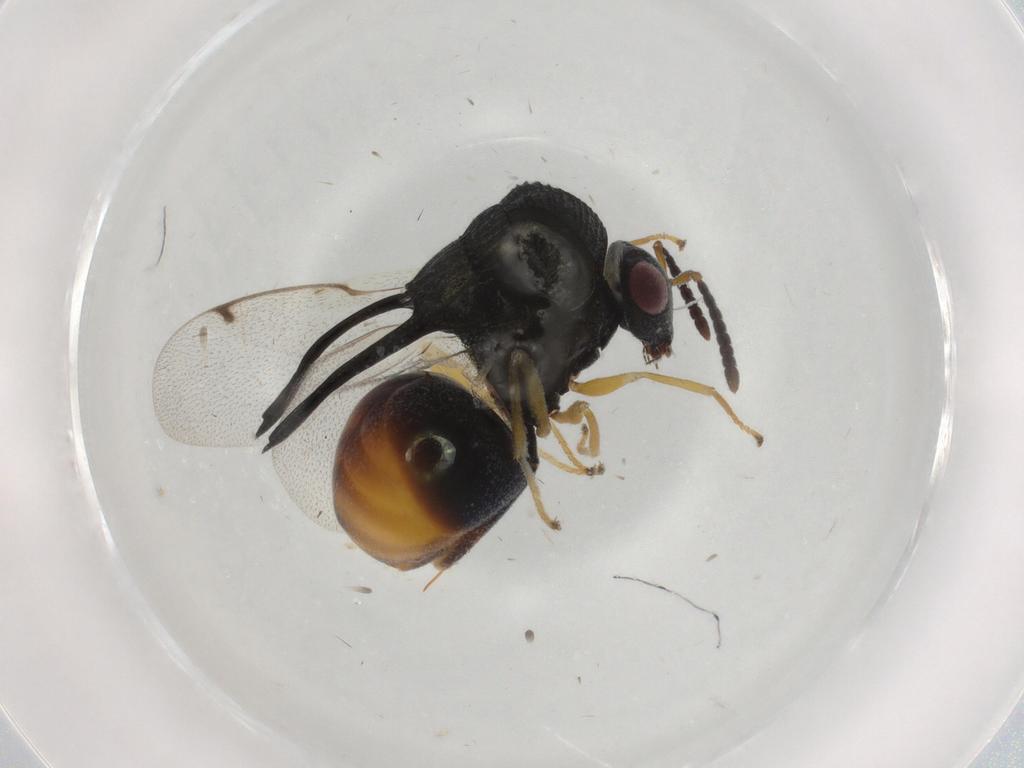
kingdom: Animalia
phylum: Arthropoda
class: Insecta
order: Hymenoptera
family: Formicidae
